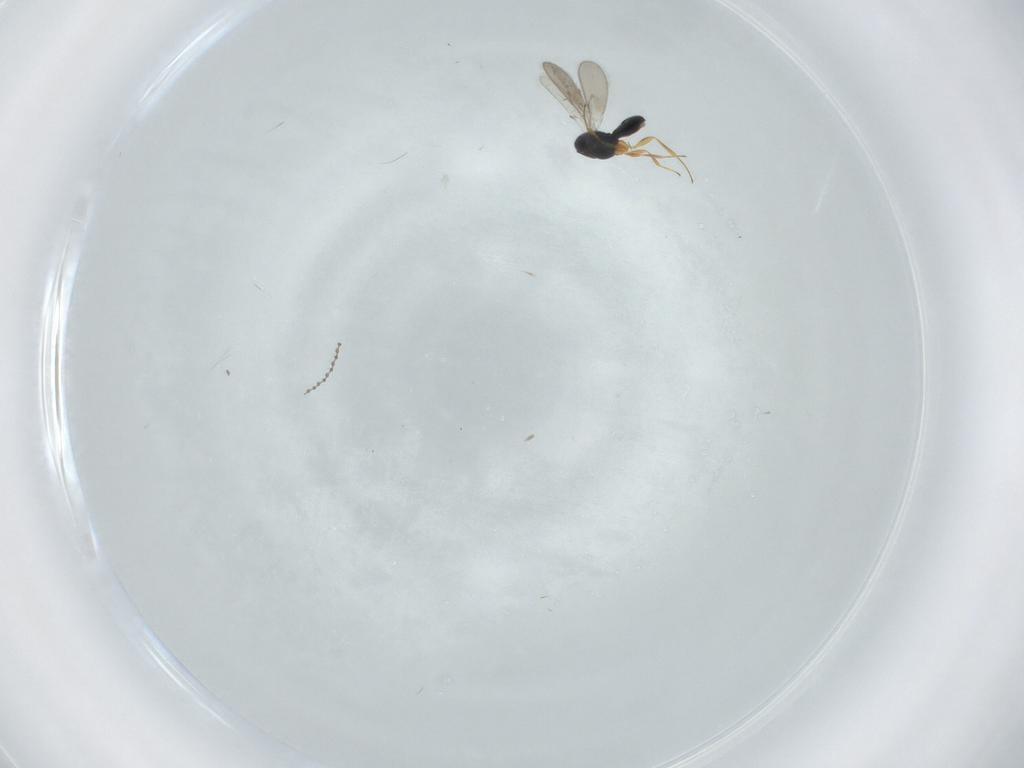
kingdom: Animalia
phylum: Arthropoda
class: Insecta
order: Hymenoptera
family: Scelionidae
